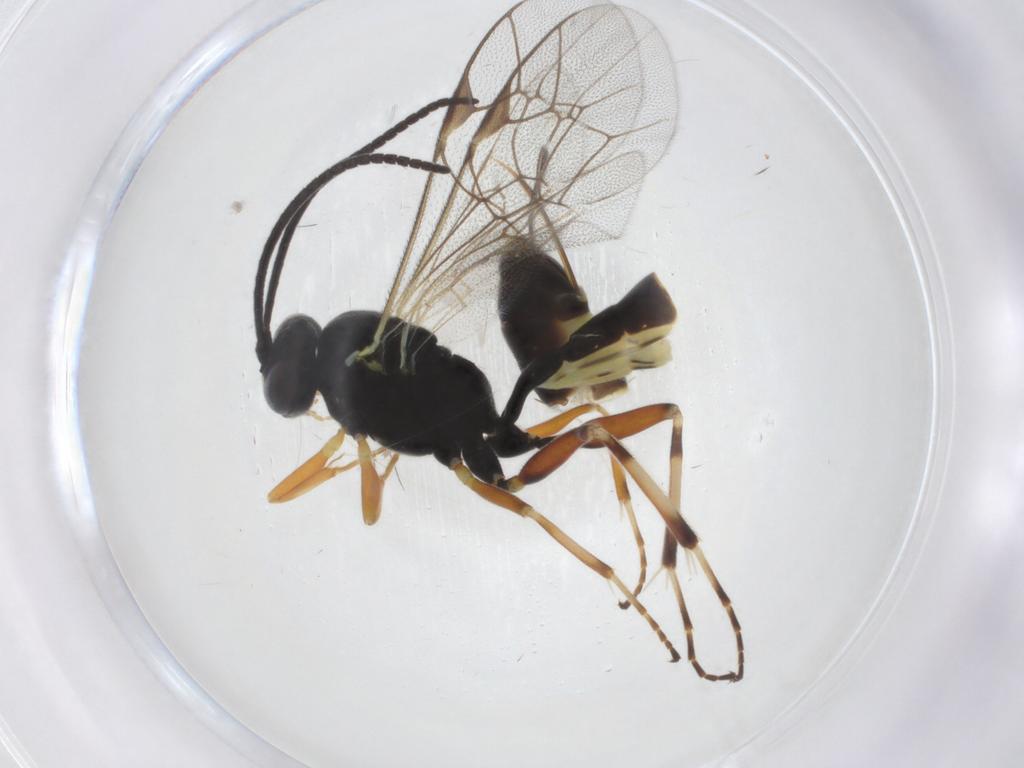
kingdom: Animalia
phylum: Arthropoda
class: Insecta
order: Hymenoptera
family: Ichneumonidae
